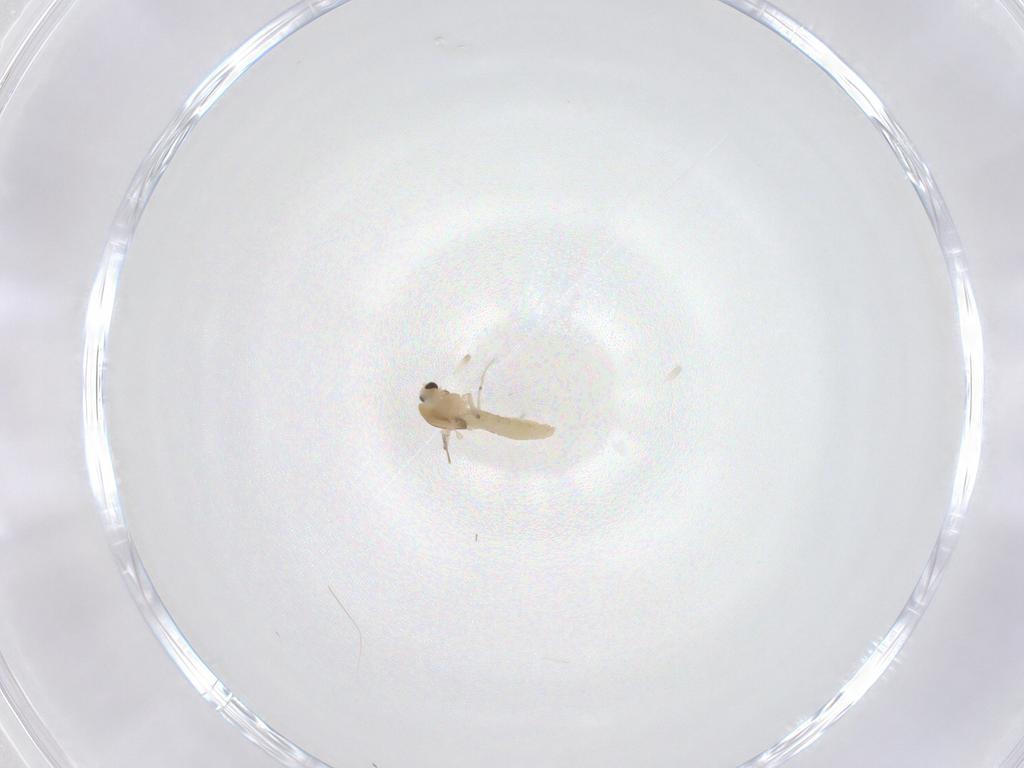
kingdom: Animalia
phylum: Arthropoda
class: Insecta
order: Diptera
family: Chironomidae
